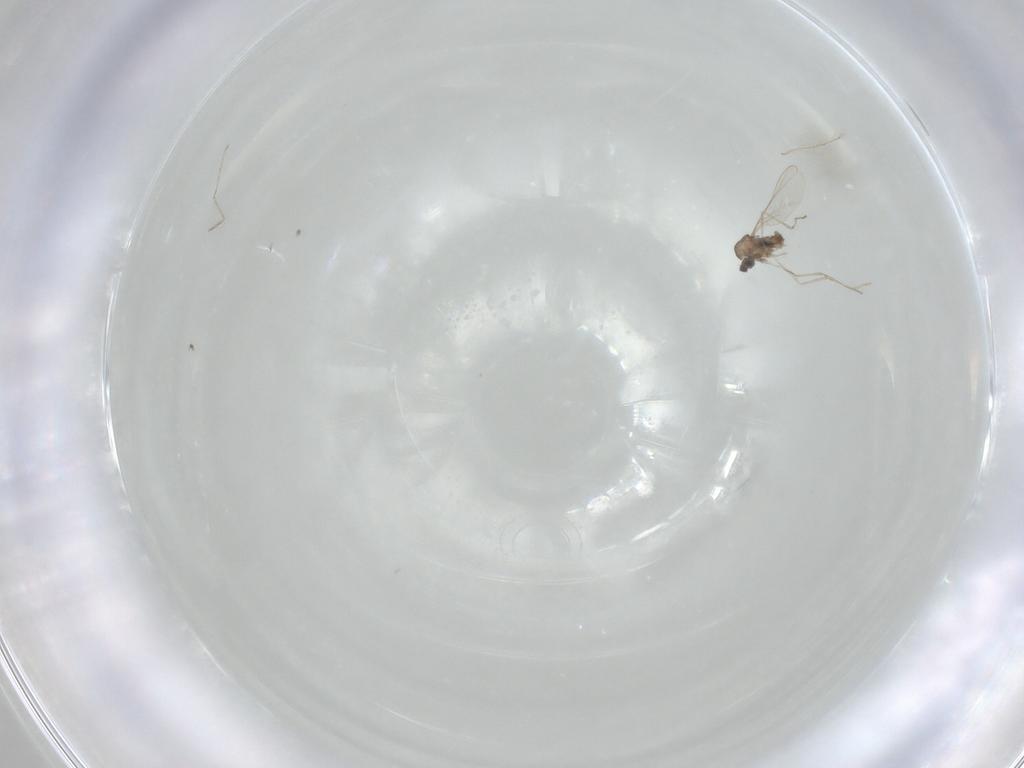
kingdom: Animalia
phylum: Arthropoda
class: Insecta
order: Diptera
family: Cecidomyiidae
